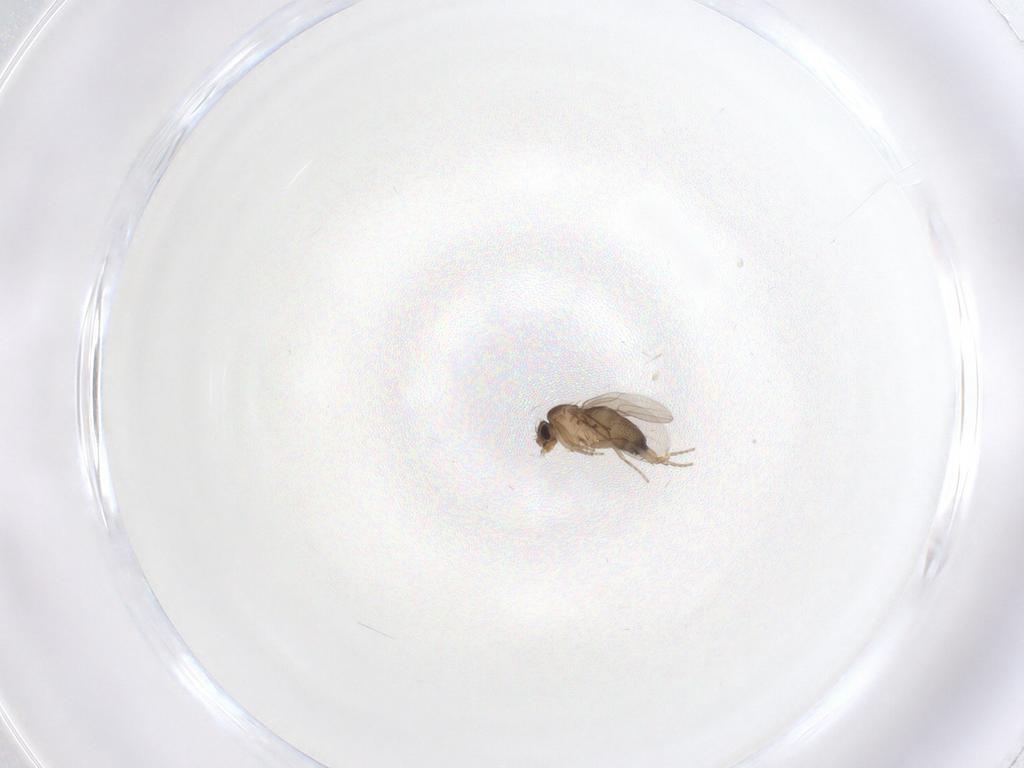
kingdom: Animalia
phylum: Arthropoda
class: Insecta
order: Diptera
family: Phoridae
